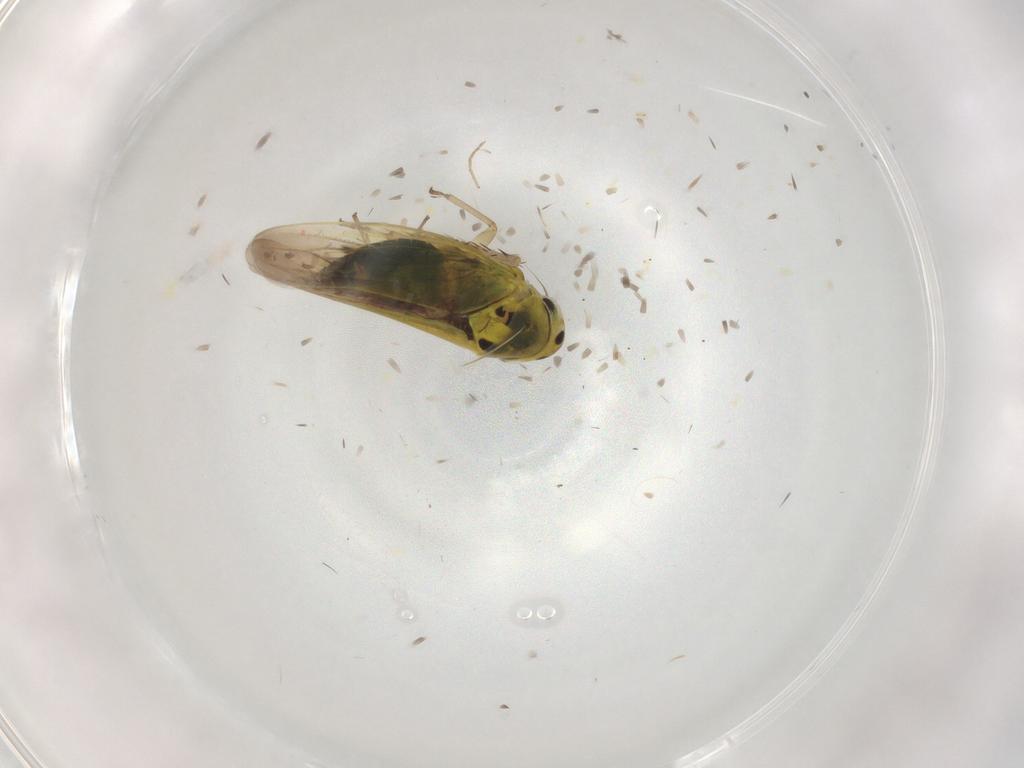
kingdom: Animalia
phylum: Arthropoda
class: Insecta
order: Hemiptera
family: Cicadellidae
